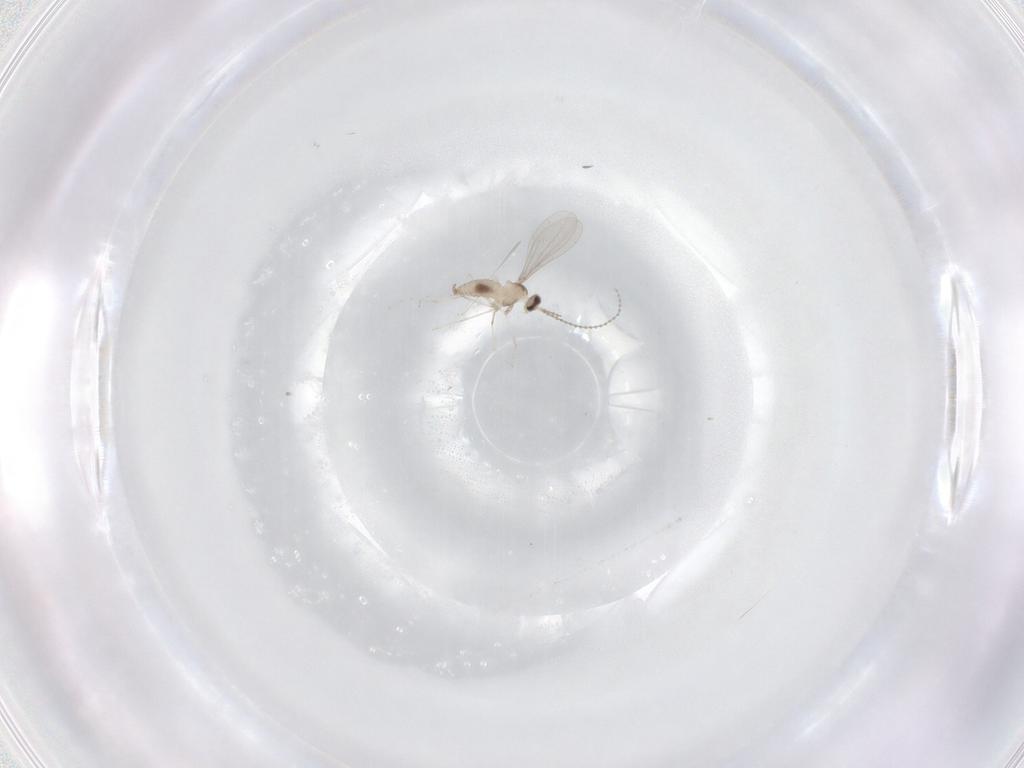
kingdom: Animalia
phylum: Arthropoda
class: Insecta
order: Diptera
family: Cecidomyiidae
